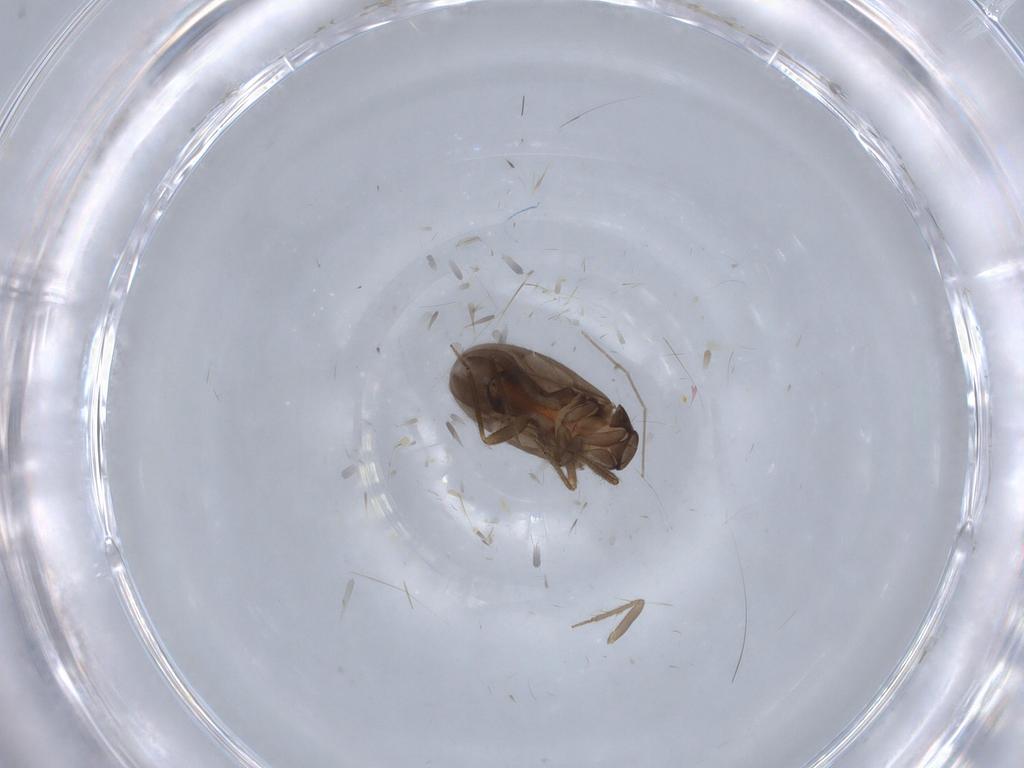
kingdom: Animalia
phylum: Arthropoda
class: Insecta
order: Hemiptera
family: Ceratocombidae
